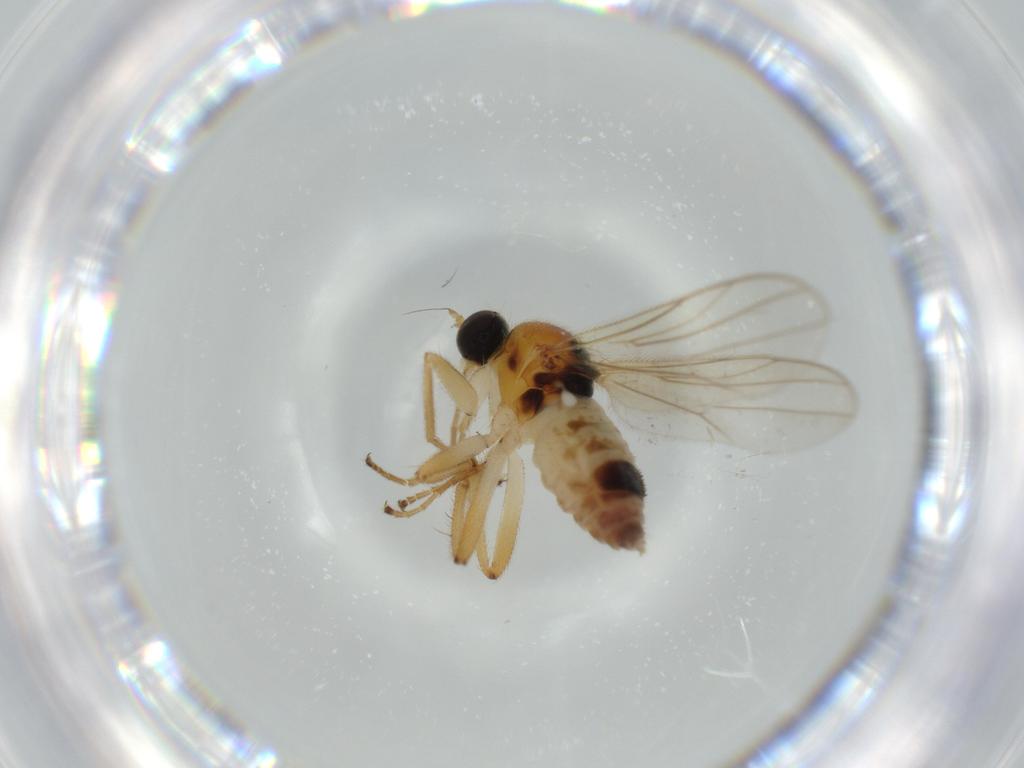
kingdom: Animalia
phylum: Arthropoda
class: Insecta
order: Diptera
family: Hybotidae
